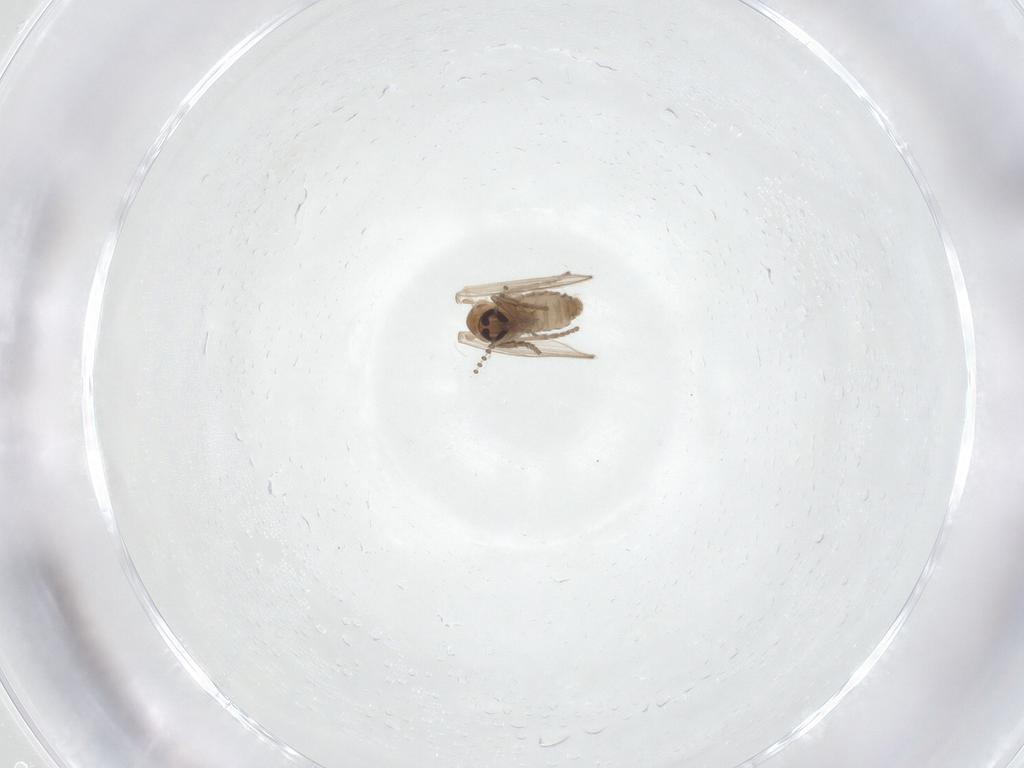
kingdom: Animalia
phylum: Arthropoda
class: Insecta
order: Diptera
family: Psychodidae
